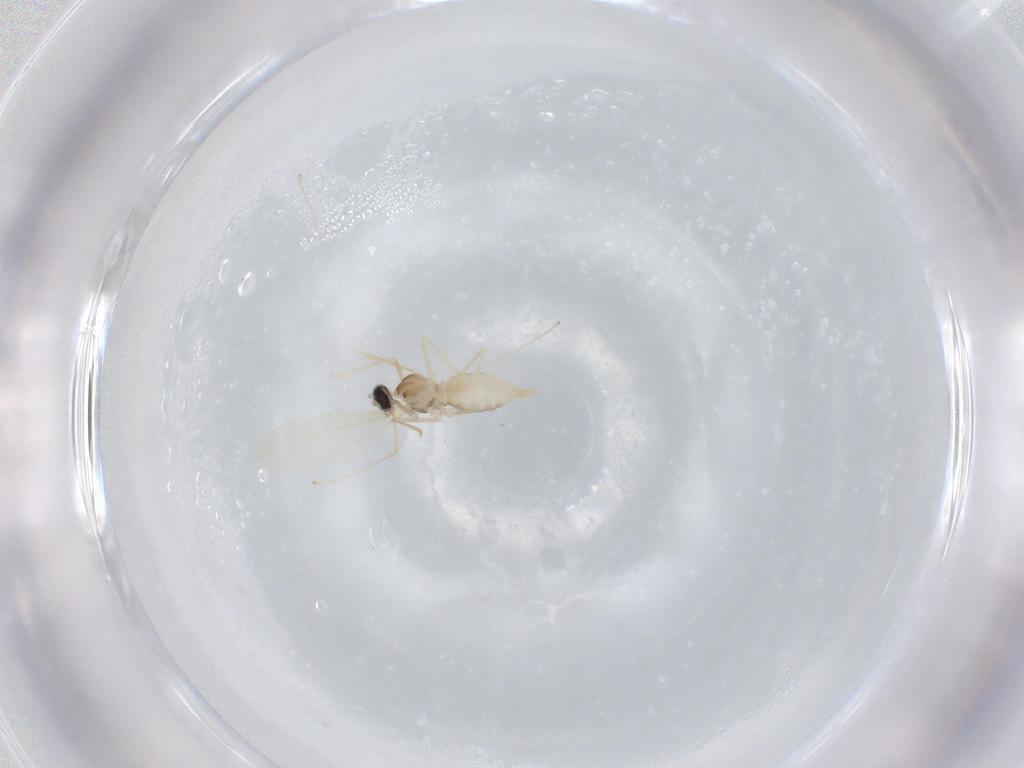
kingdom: Animalia
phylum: Arthropoda
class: Insecta
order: Diptera
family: Cecidomyiidae
